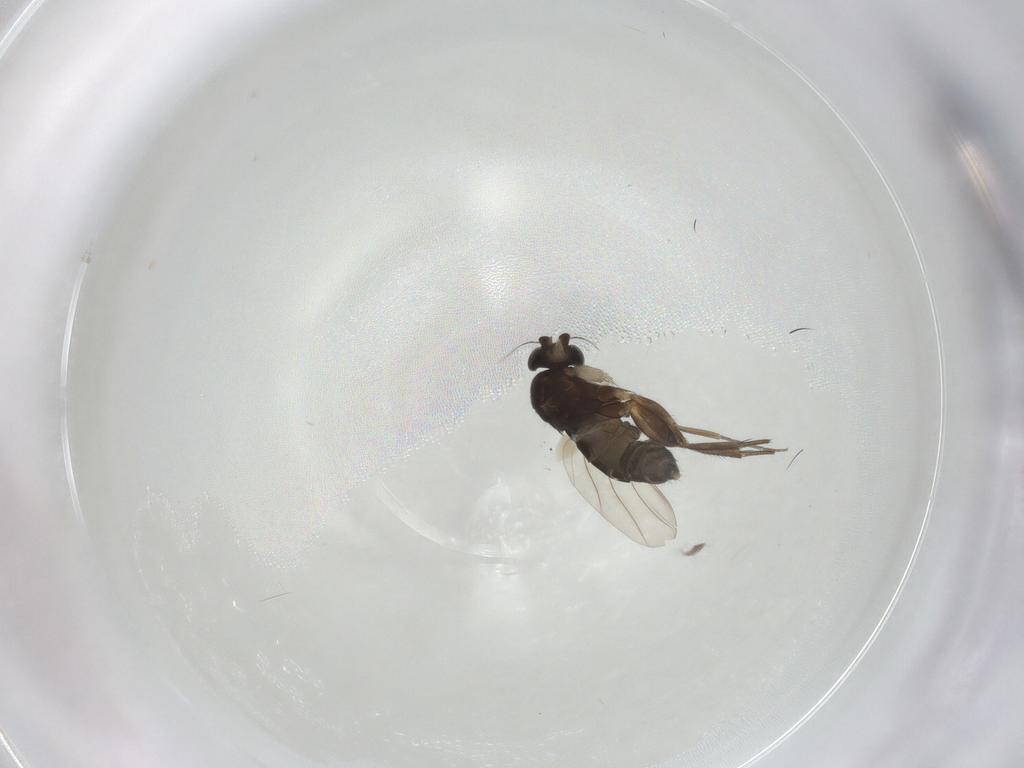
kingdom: Animalia
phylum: Arthropoda
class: Insecta
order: Diptera
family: Phoridae
